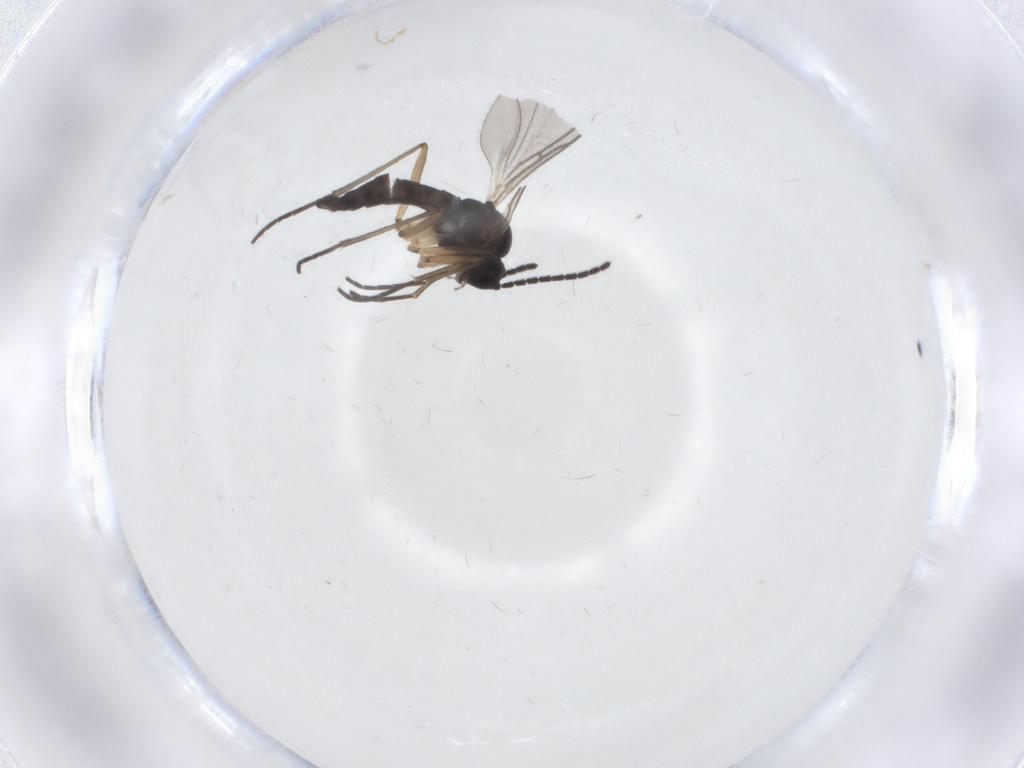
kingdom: Animalia
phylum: Arthropoda
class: Insecta
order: Diptera
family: Sciaridae
